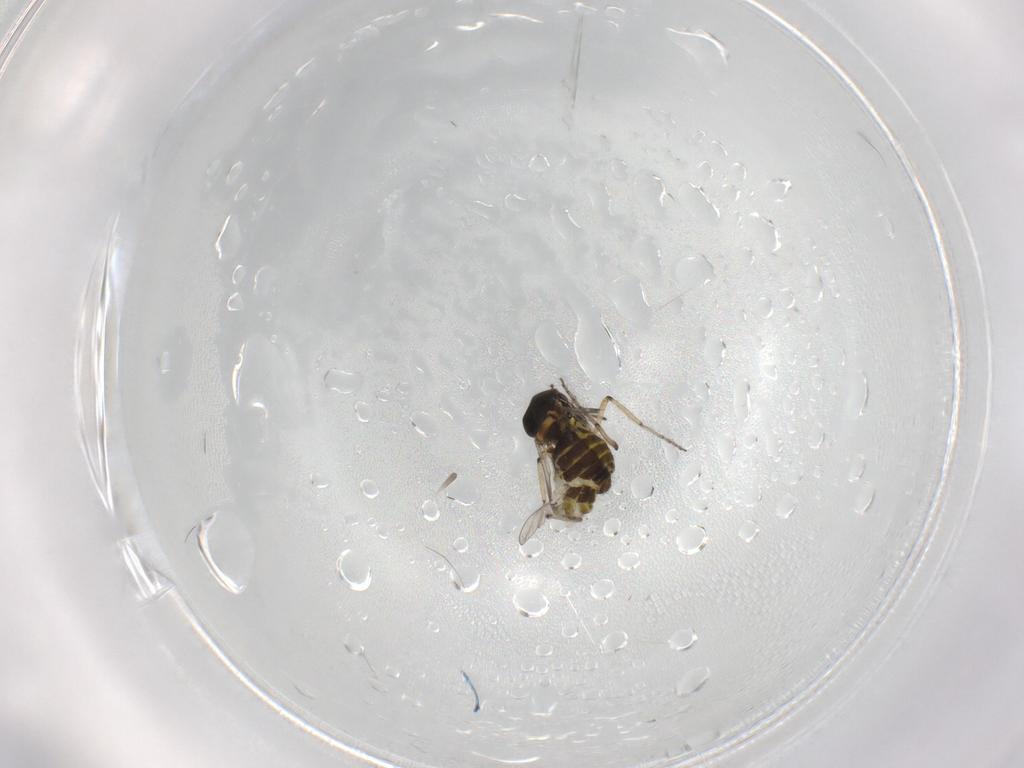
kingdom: Animalia
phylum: Arthropoda
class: Insecta
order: Diptera
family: Ceratopogonidae
